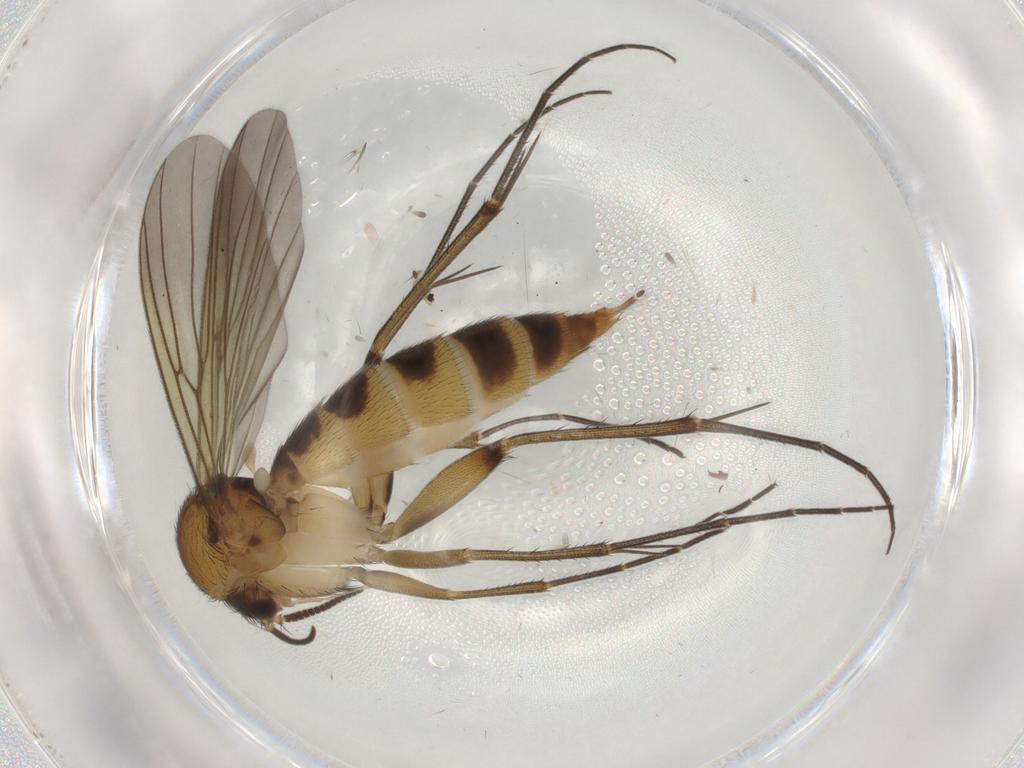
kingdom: Animalia
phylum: Arthropoda
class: Insecta
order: Diptera
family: Mycetophilidae
